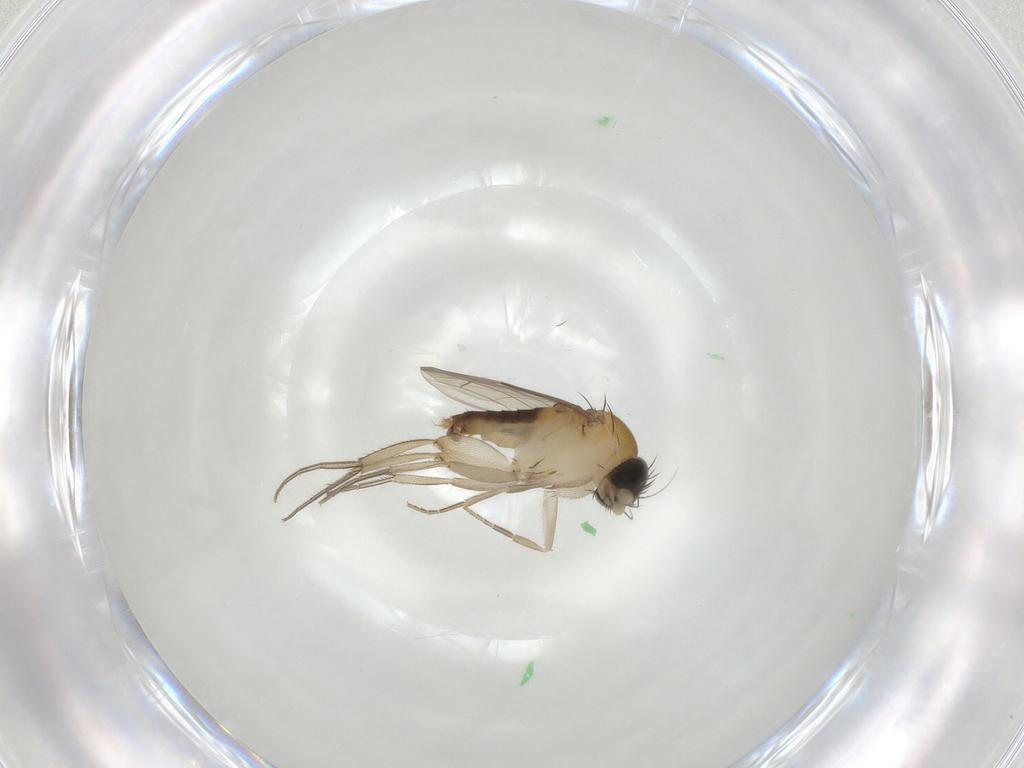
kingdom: Animalia
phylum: Arthropoda
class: Insecta
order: Diptera
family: Phoridae
